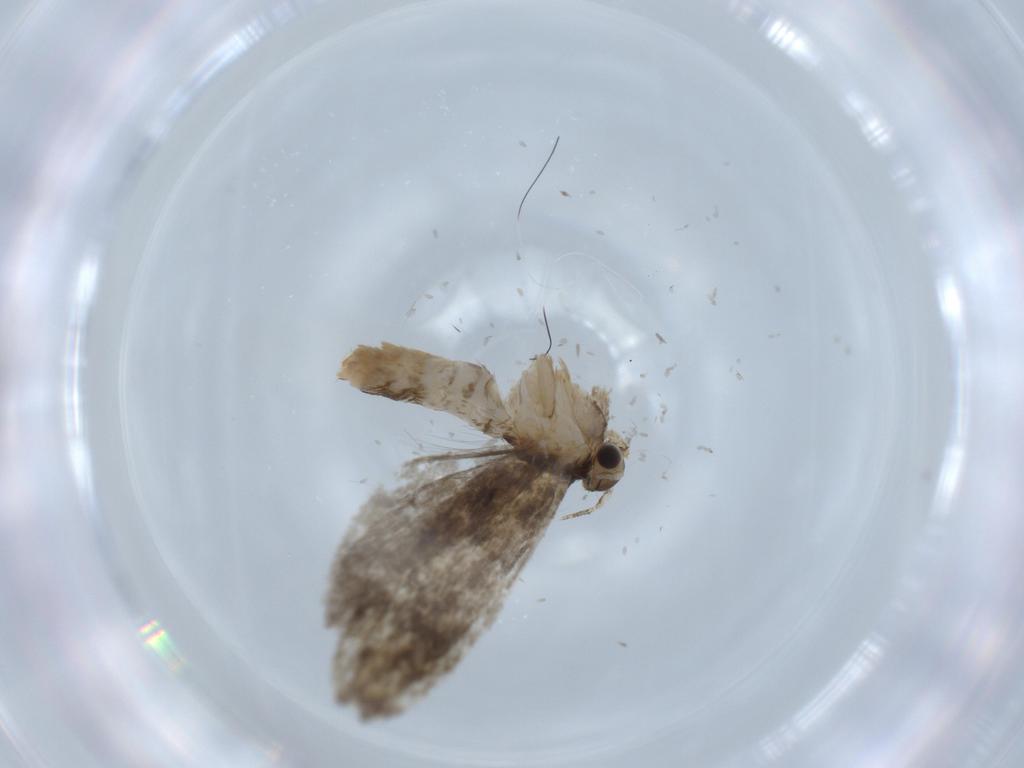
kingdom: Animalia
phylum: Arthropoda
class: Insecta
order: Lepidoptera
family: Tineidae
